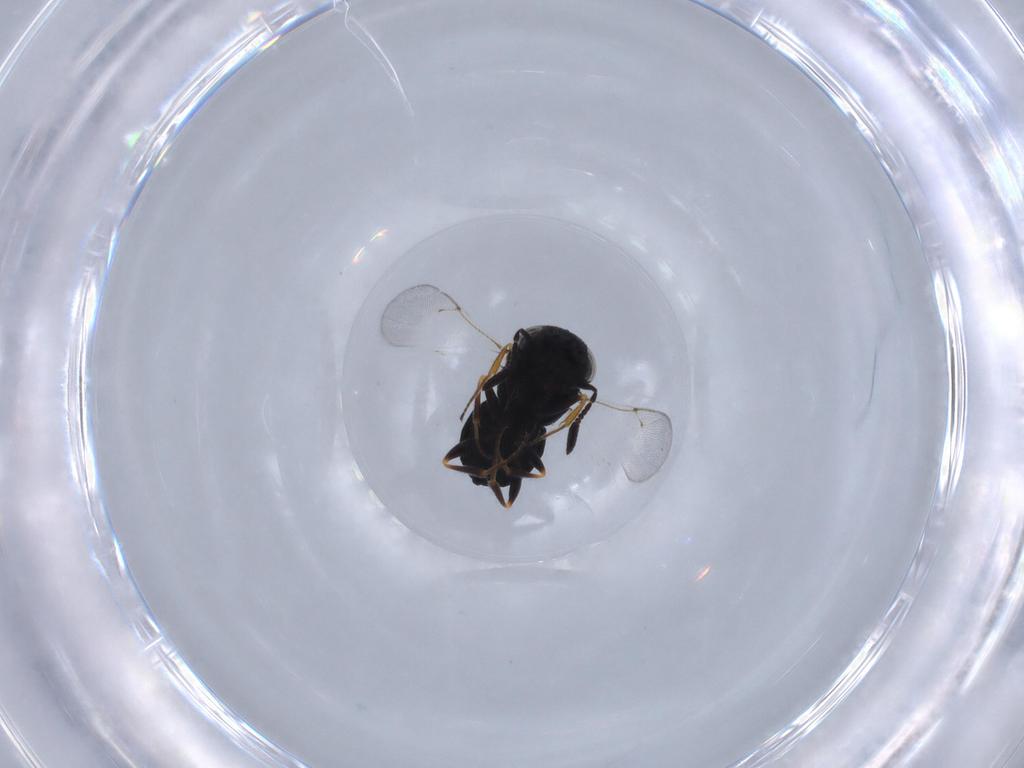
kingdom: Animalia
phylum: Arthropoda
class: Insecta
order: Hymenoptera
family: Scelionidae
